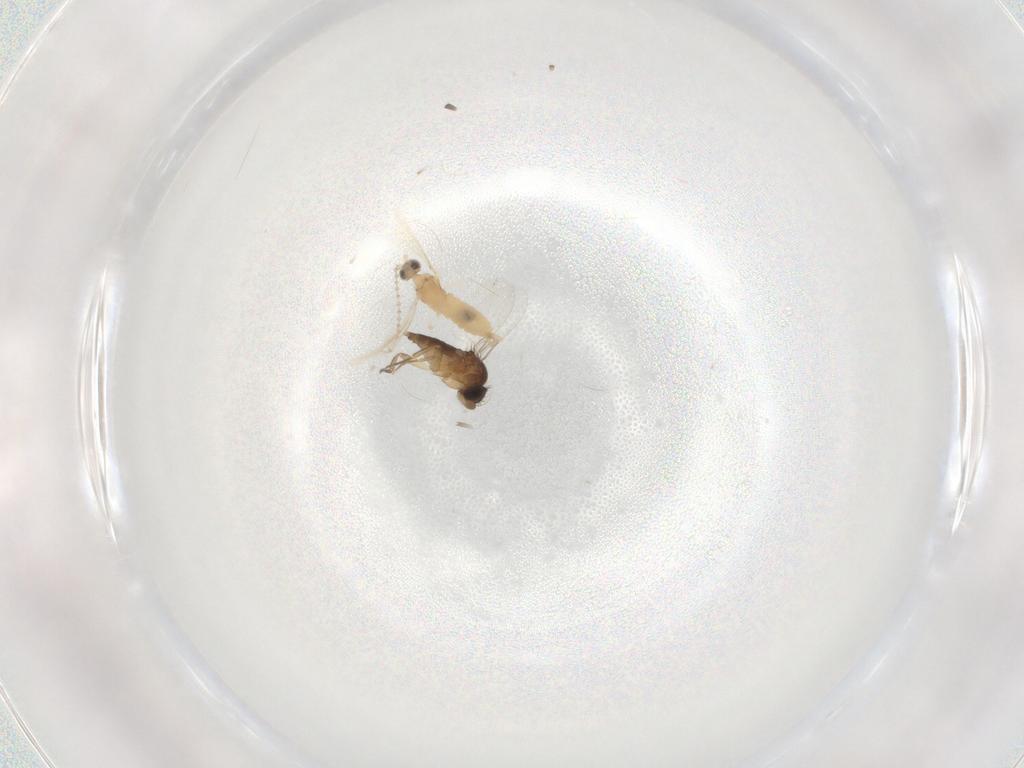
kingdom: Animalia
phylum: Arthropoda
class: Insecta
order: Diptera
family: Phoridae
